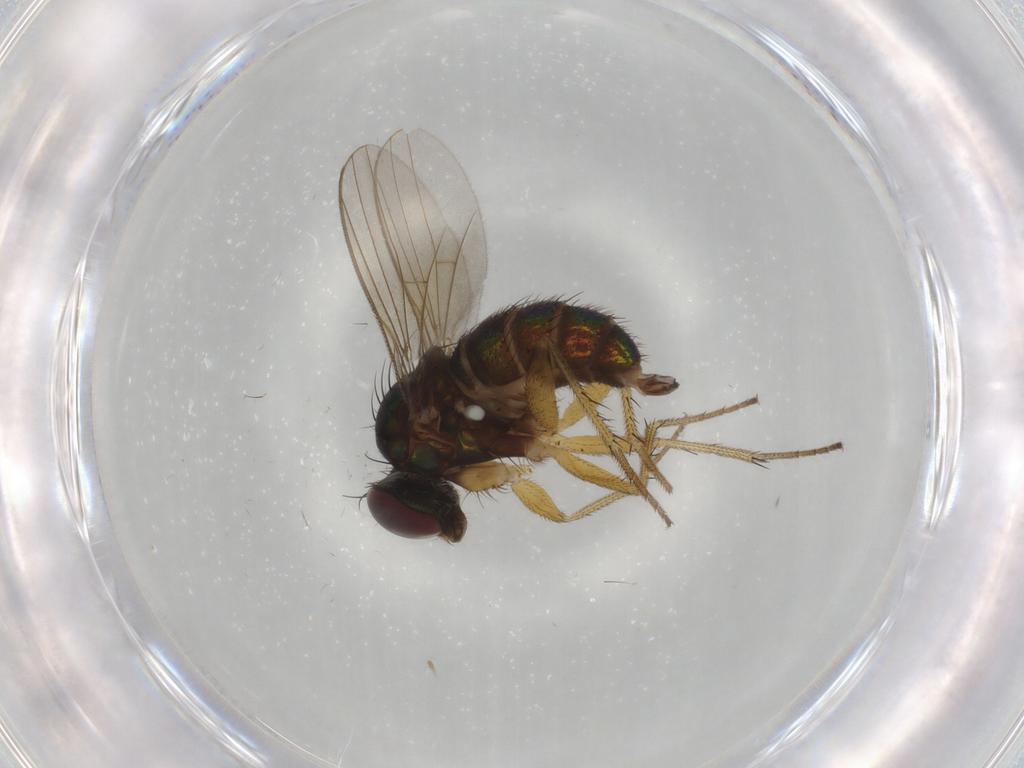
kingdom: Animalia
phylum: Arthropoda
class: Insecta
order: Diptera
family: Dolichopodidae
